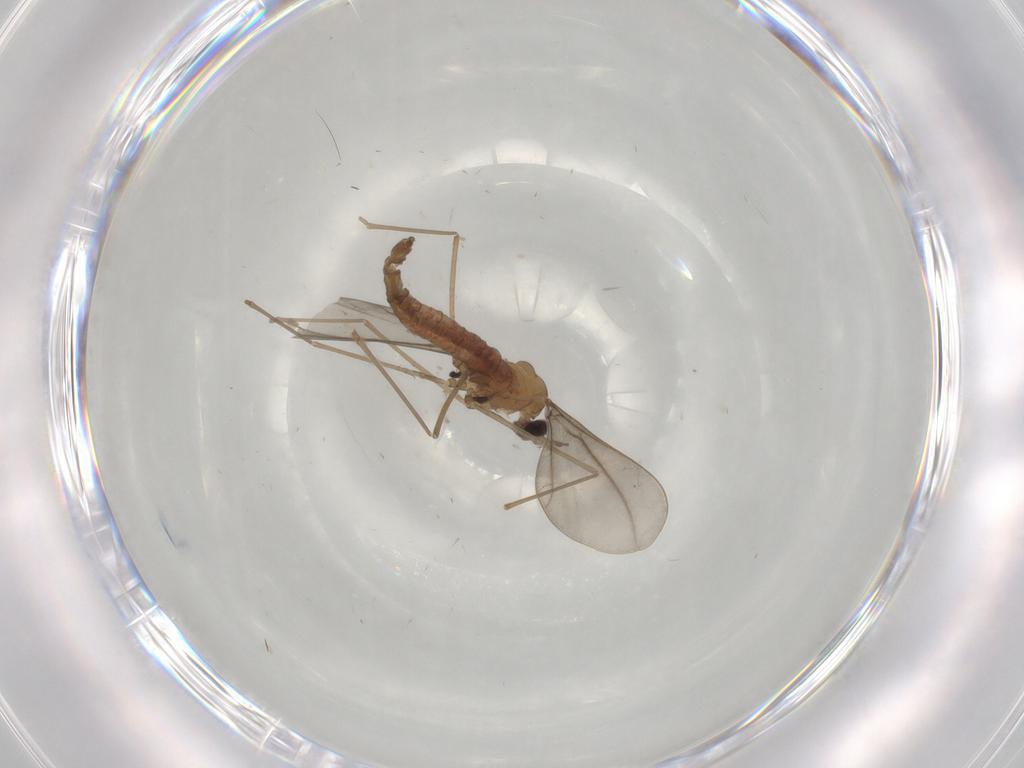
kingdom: Animalia
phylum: Arthropoda
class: Insecta
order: Diptera
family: Cecidomyiidae
